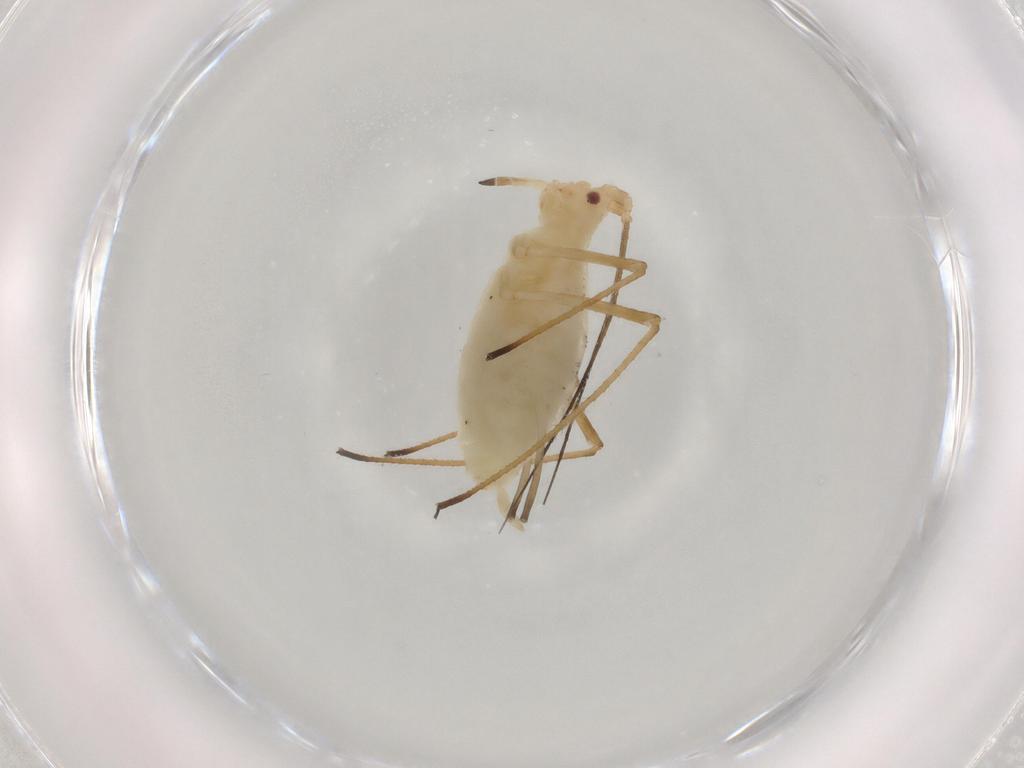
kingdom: Animalia
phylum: Arthropoda
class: Insecta
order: Hemiptera
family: Aphididae
